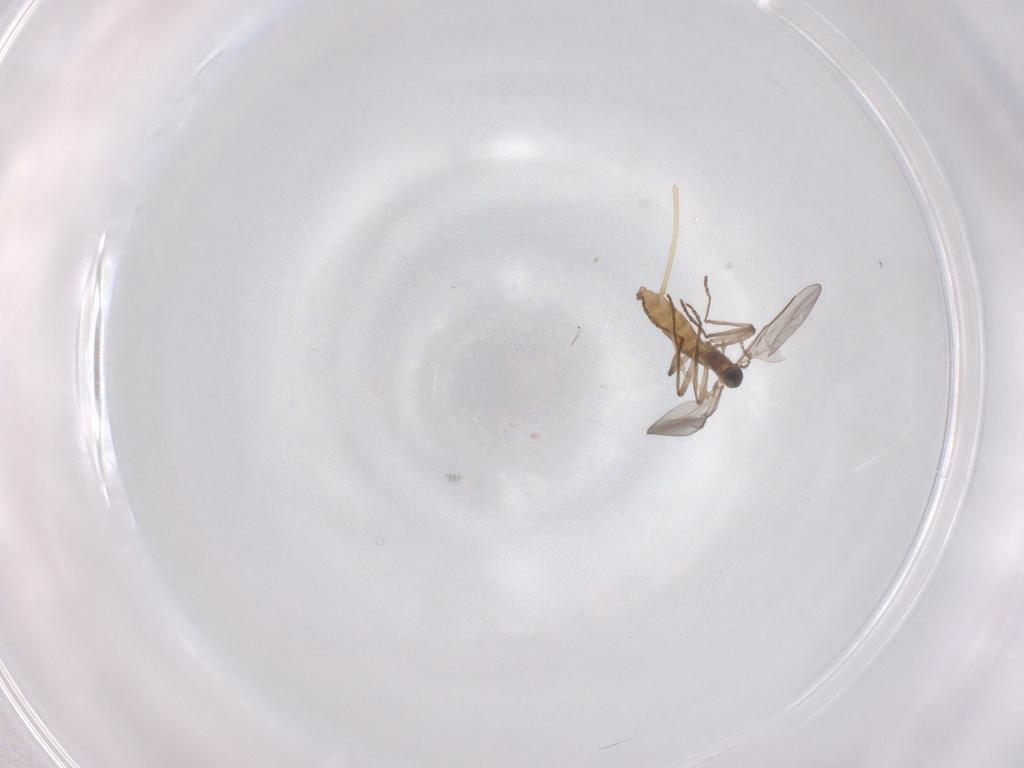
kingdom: Animalia
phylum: Arthropoda
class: Insecta
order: Diptera
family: Cecidomyiidae
